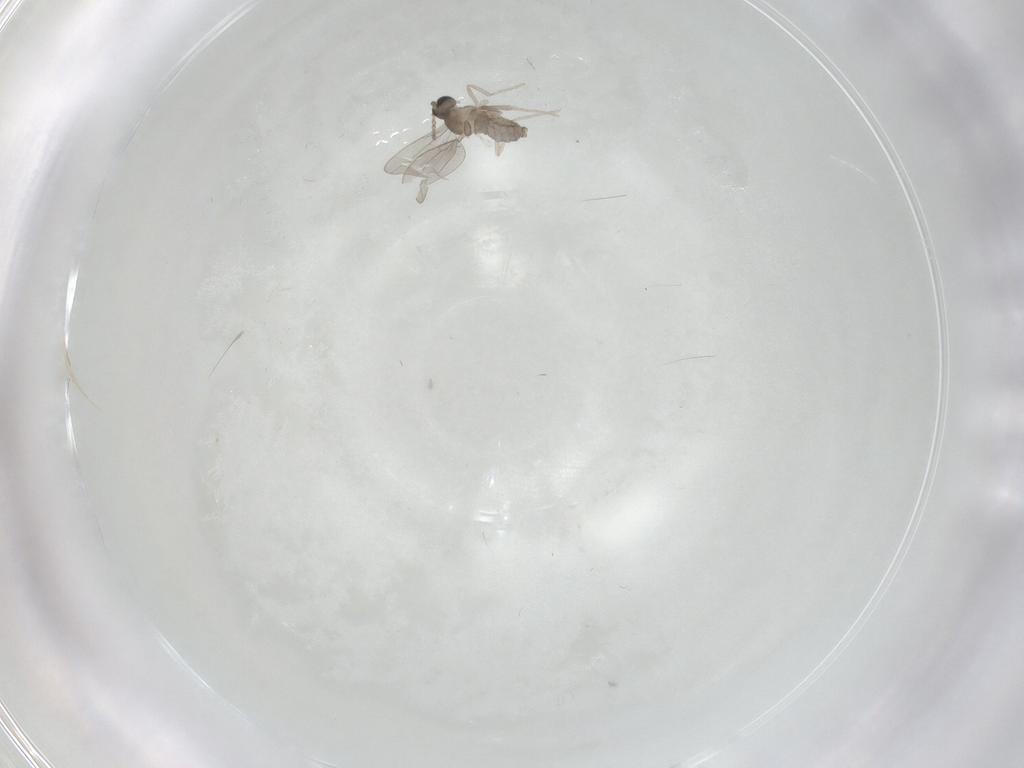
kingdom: Animalia
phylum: Arthropoda
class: Insecta
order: Diptera
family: Cecidomyiidae
